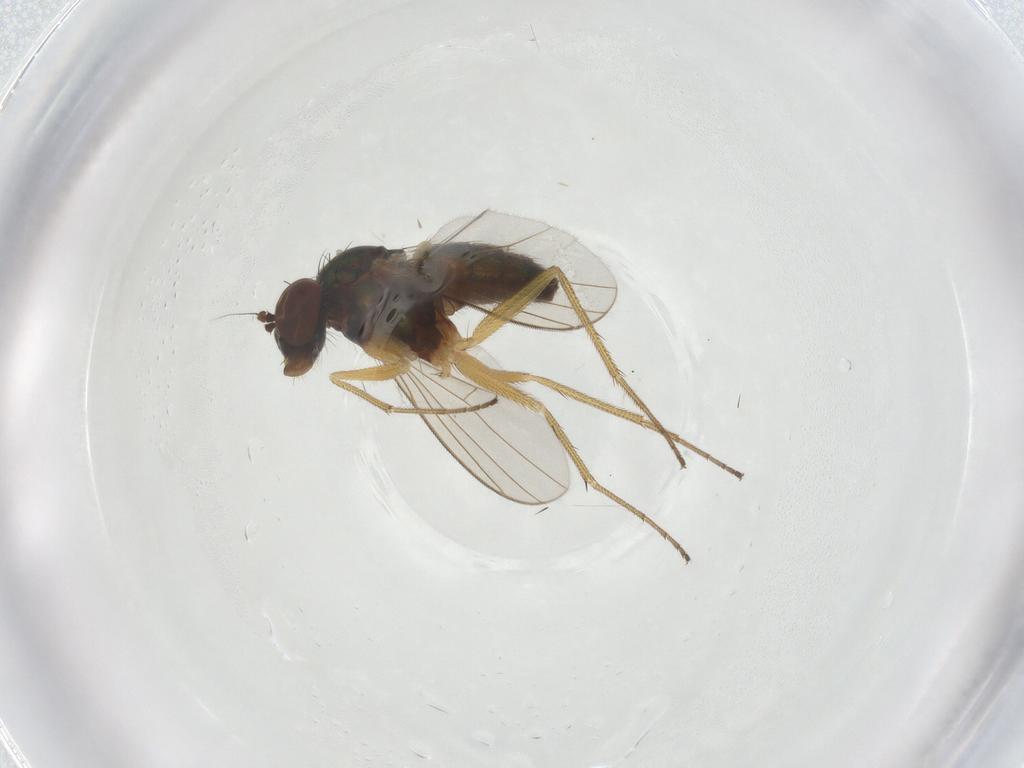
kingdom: Animalia
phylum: Arthropoda
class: Insecta
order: Diptera
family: Dolichopodidae
